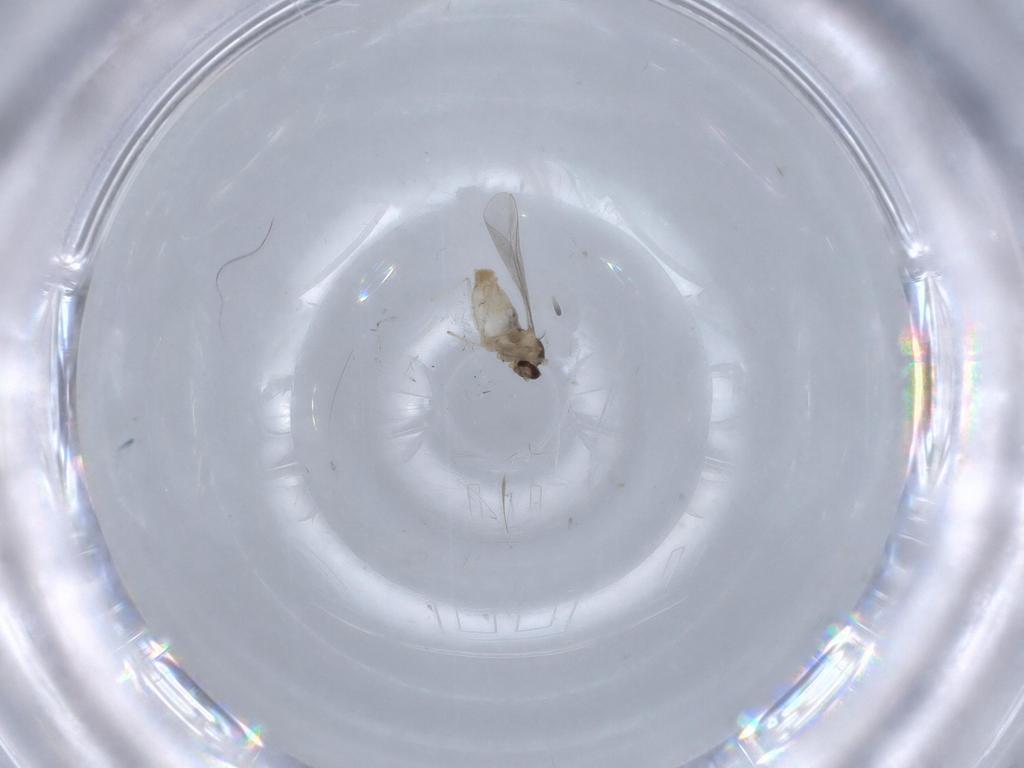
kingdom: Animalia
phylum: Arthropoda
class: Insecta
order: Diptera
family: Cecidomyiidae
